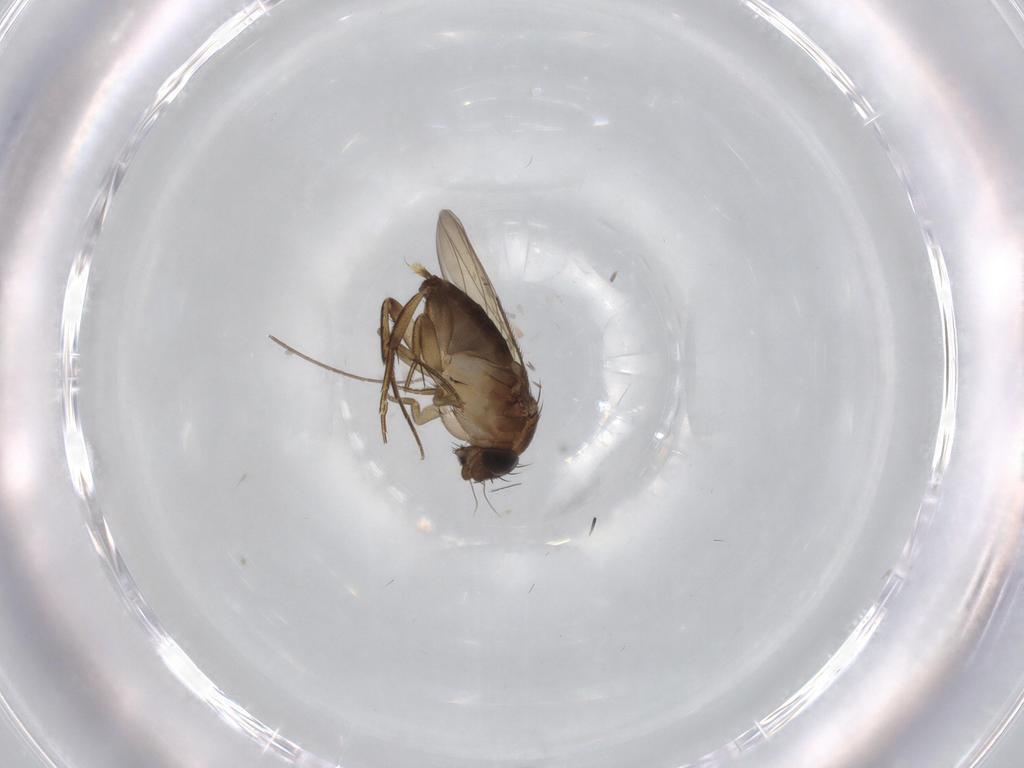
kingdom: Animalia
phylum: Arthropoda
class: Insecta
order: Diptera
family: Phoridae
